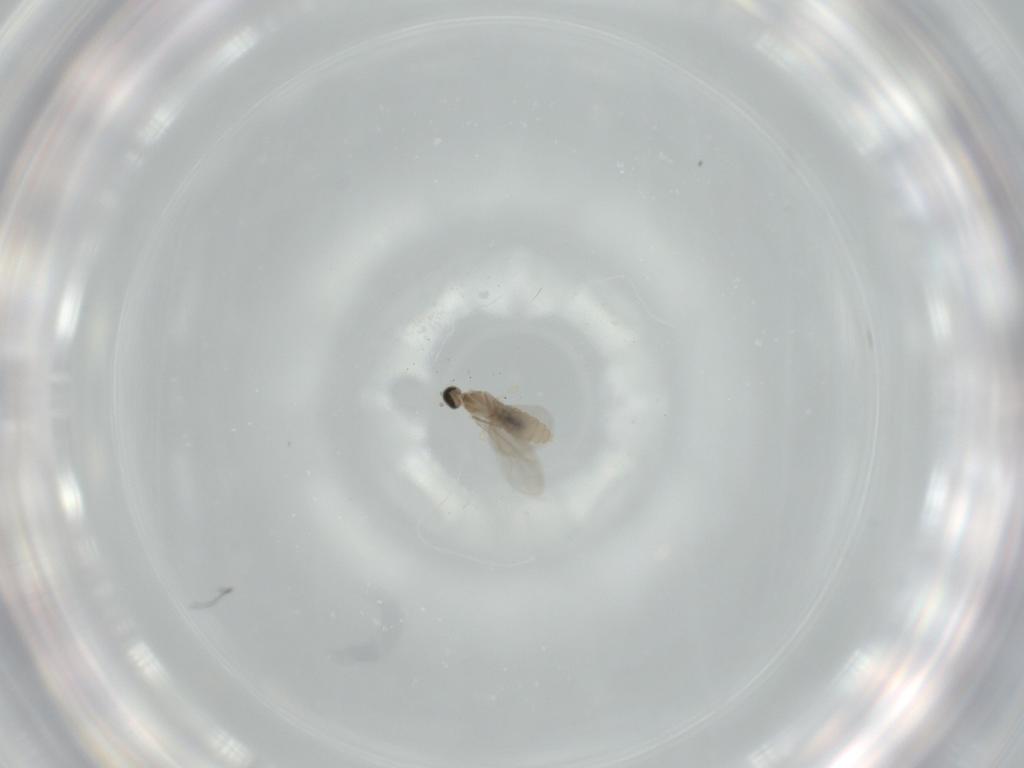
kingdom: Animalia
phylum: Arthropoda
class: Insecta
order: Diptera
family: Cecidomyiidae
